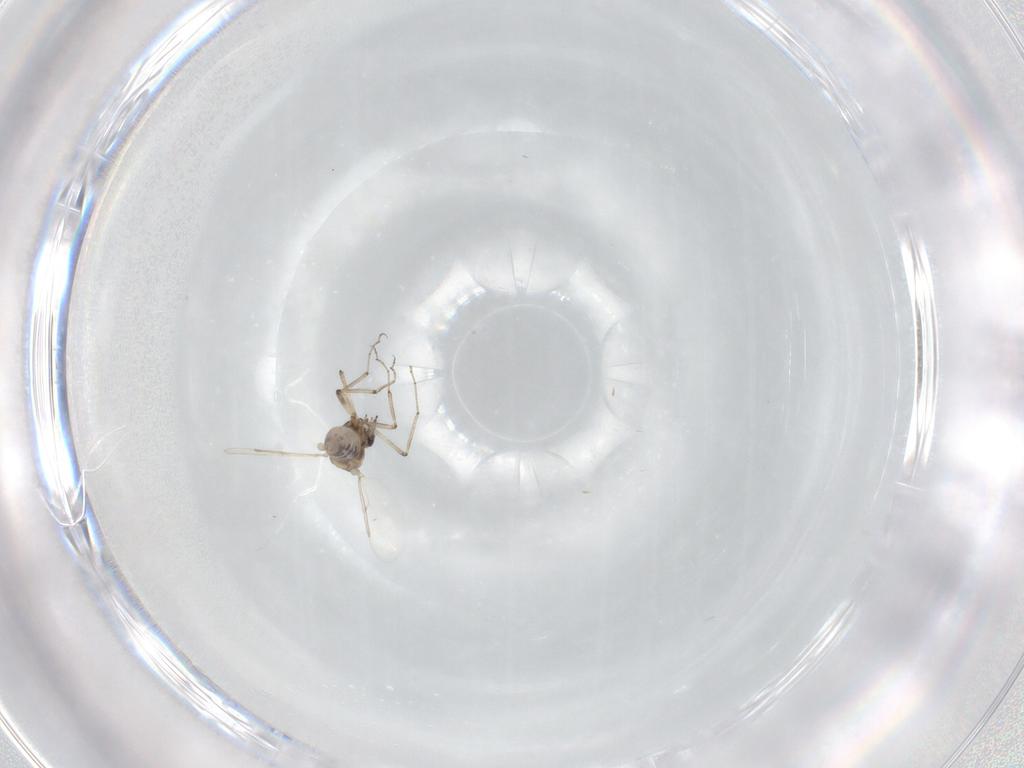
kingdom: Animalia
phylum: Arthropoda
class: Insecta
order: Diptera
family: Ceratopogonidae
